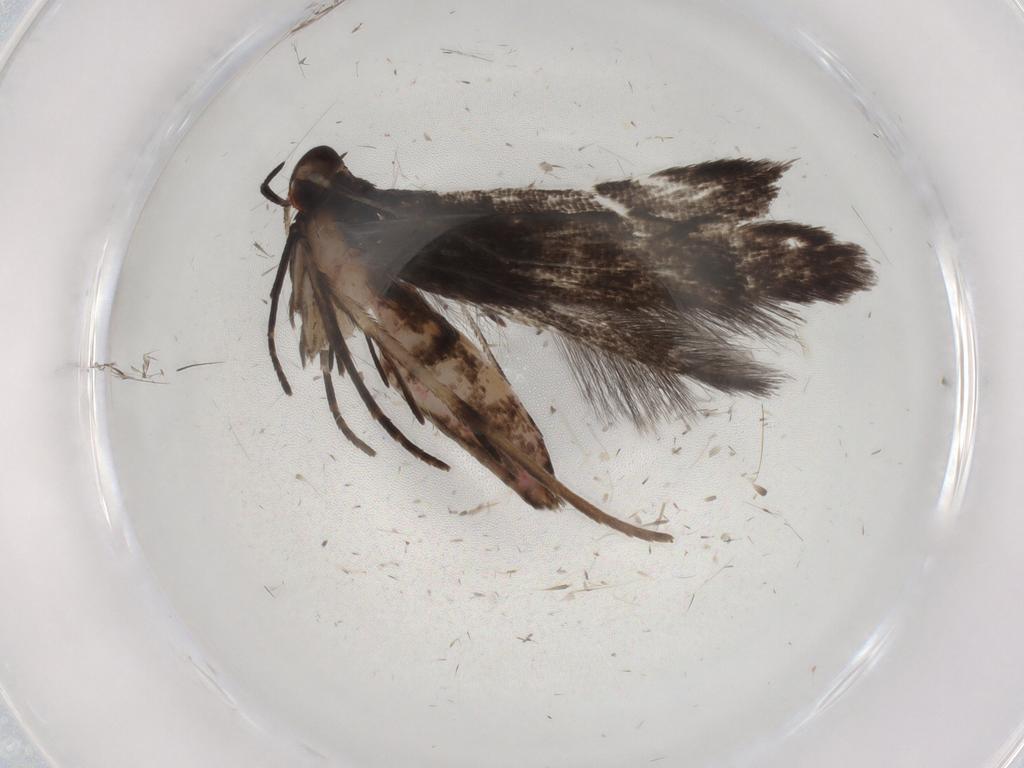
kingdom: Animalia
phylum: Arthropoda
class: Insecta
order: Lepidoptera
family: Gelechiidae
